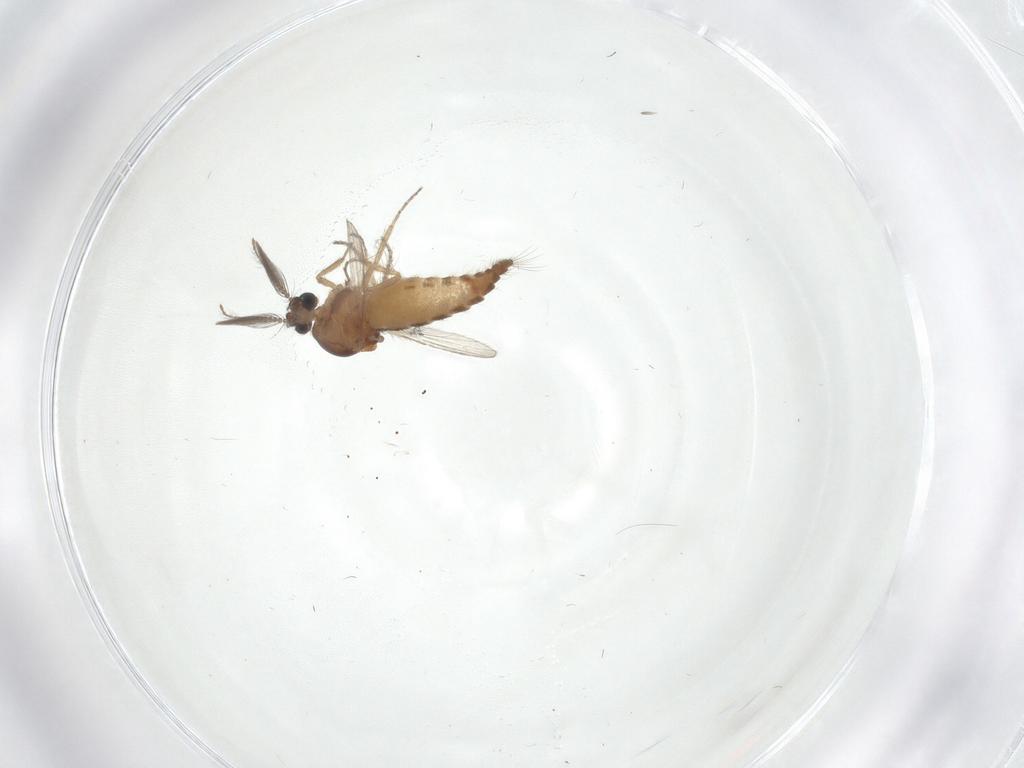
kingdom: Animalia
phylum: Arthropoda
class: Insecta
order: Diptera
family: Ceratopogonidae
